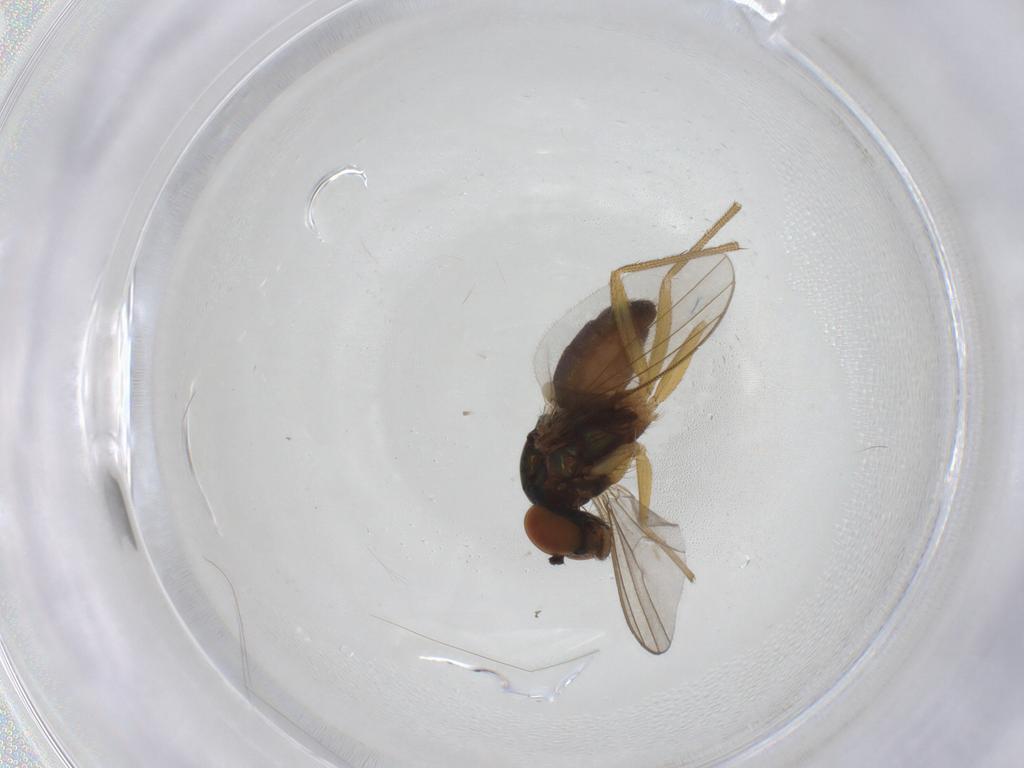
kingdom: Animalia
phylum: Arthropoda
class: Insecta
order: Diptera
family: Dolichopodidae
